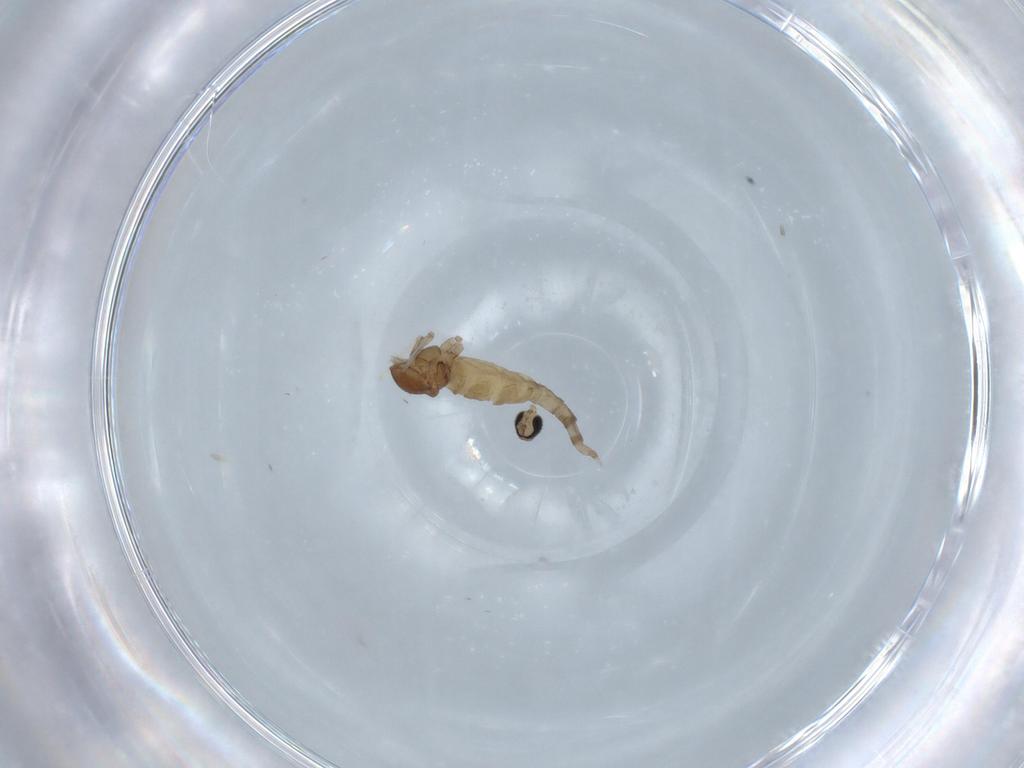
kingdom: Animalia
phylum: Arthropoda
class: Insecta
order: Diptera
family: Cecidomyiidae
